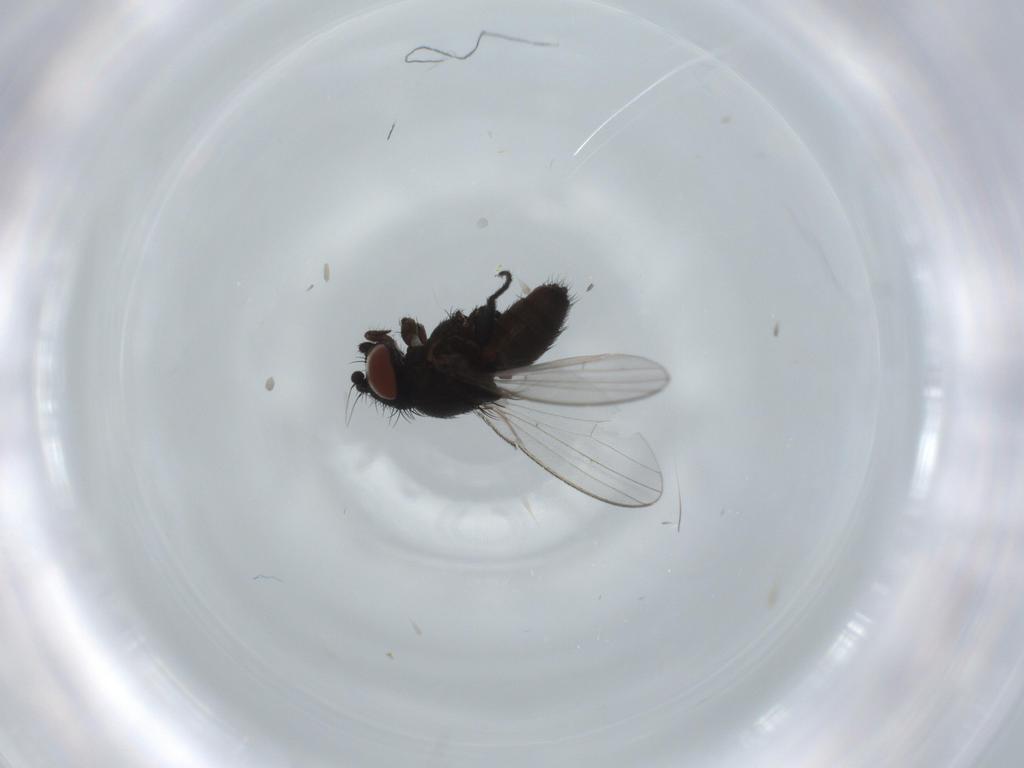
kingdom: Animalia
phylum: Arthropoda
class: Insecta
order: Diptera
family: Milichiidae
